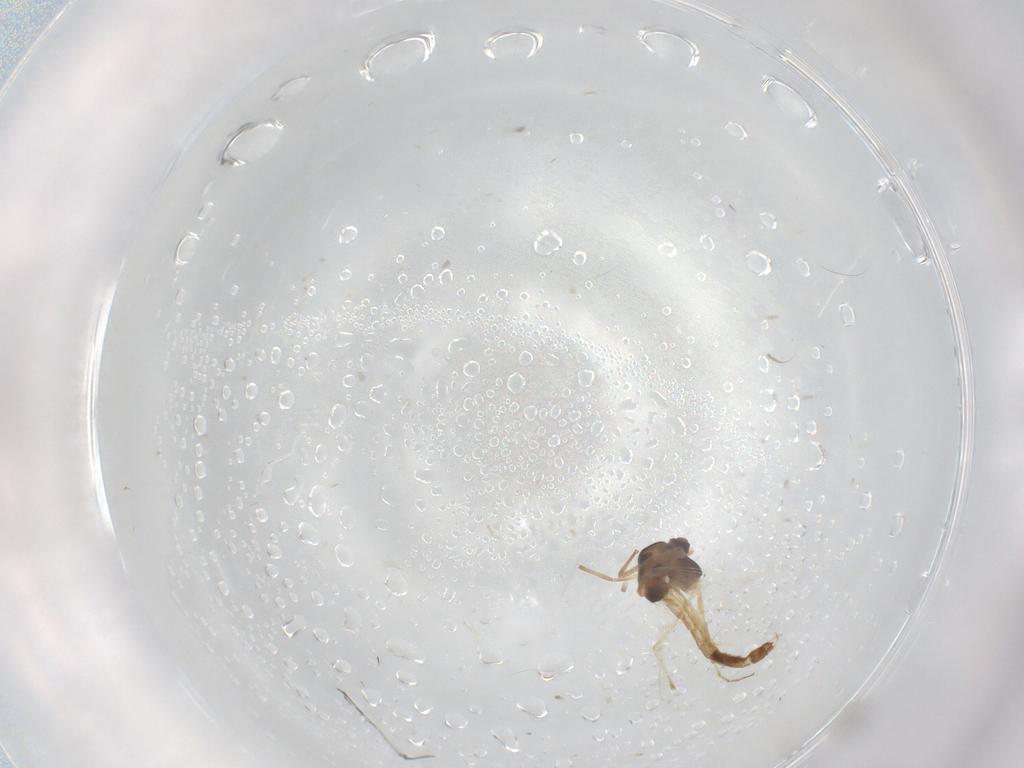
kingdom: Animalia
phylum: Arthropoda
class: Insecta
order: Diptera
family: Chironomidae
